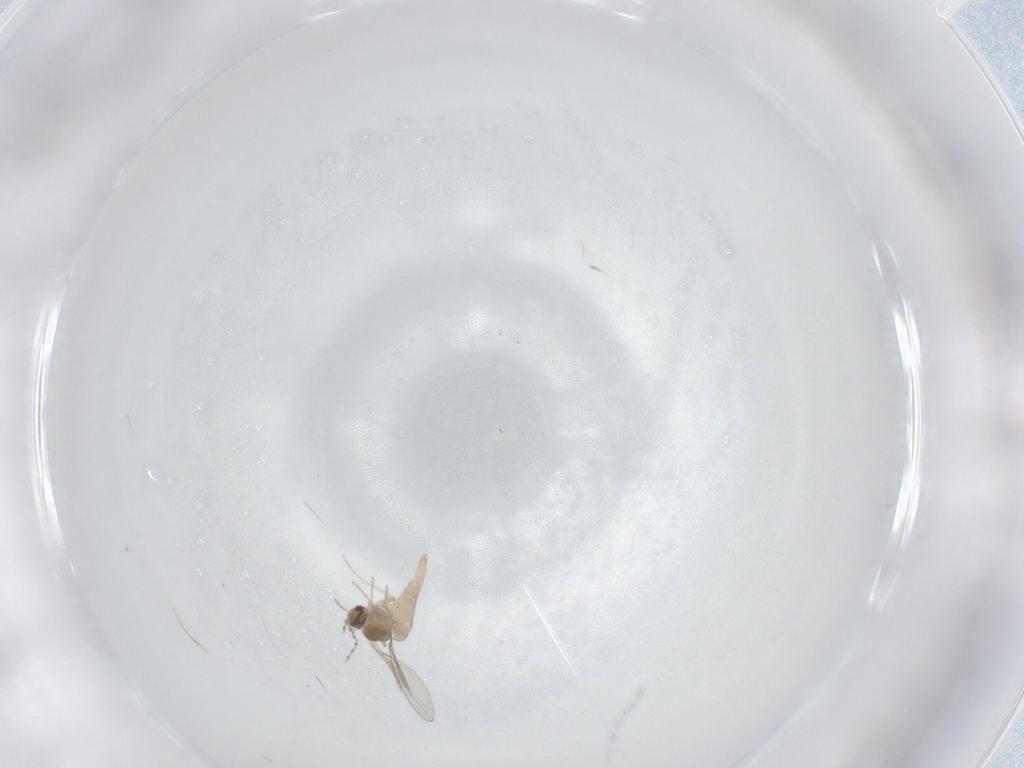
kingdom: Animalia
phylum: Arthropoda
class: Insecta
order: Diptera
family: Cecidomyiidae
